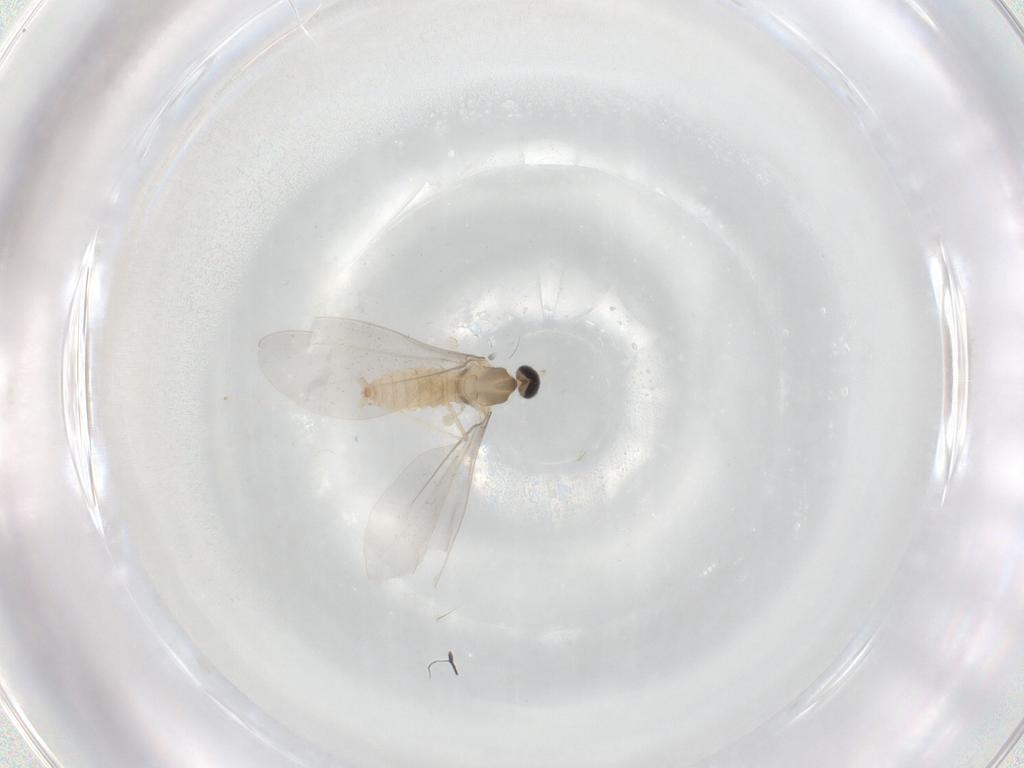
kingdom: Animalia
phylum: Arthropoda
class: Insecta
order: Diptera
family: Cecidomyiidae
